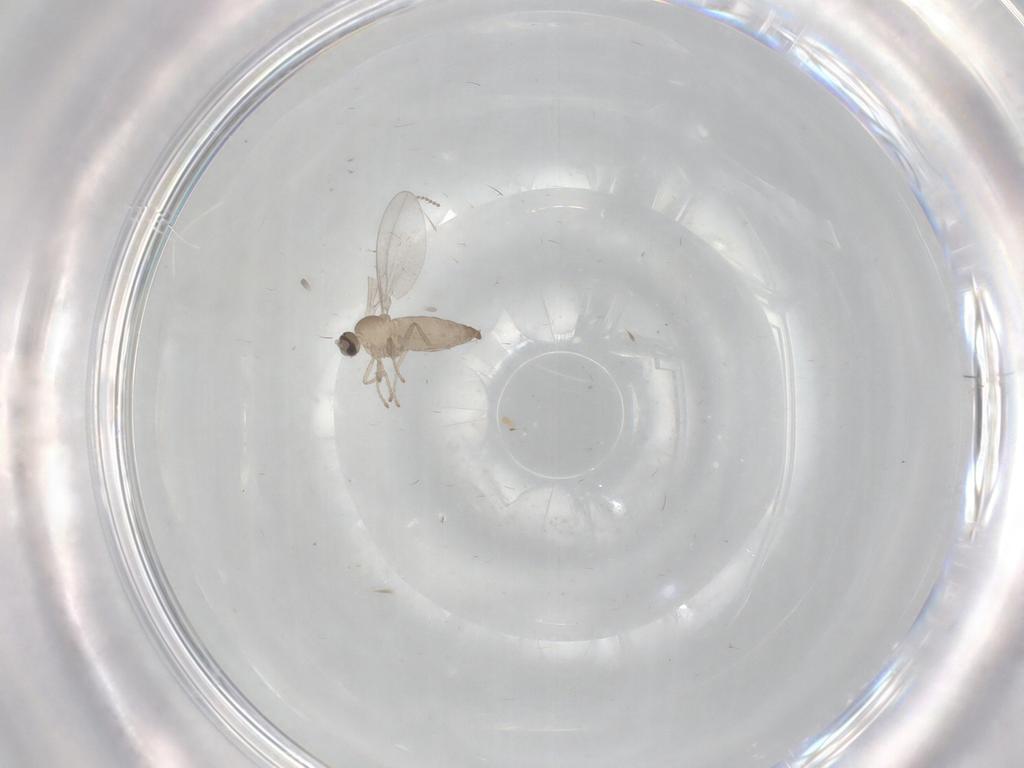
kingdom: Animalia
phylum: Arthropoda
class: Insecta
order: Diptera
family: Cecidomyiidae
